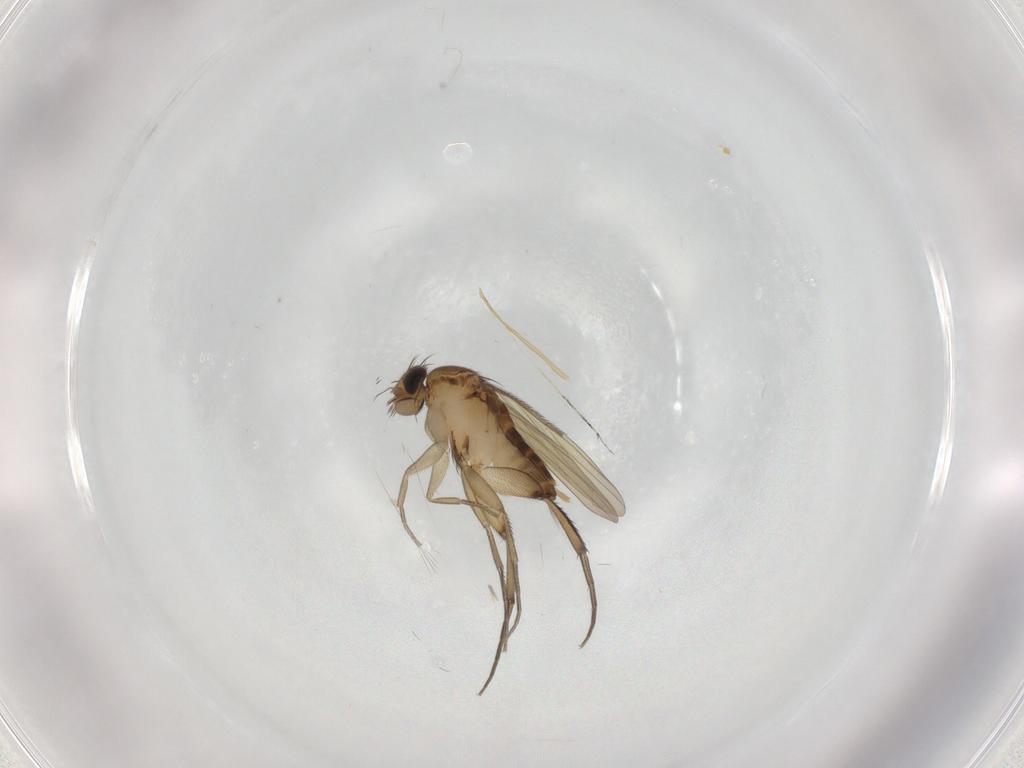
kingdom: Animalia
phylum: Arthropoda
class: Insecta
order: Diptera
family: Phoridae
